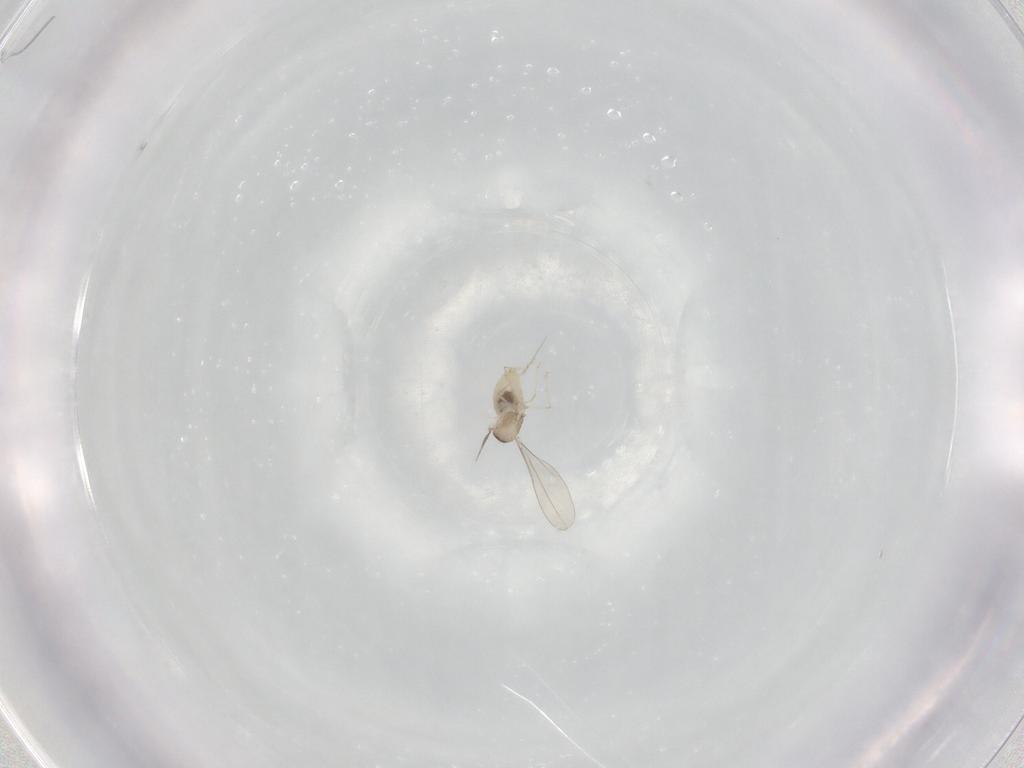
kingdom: Animalia
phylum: Arthropoda
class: Insecta
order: Diptera
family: Cecidomyiidae
